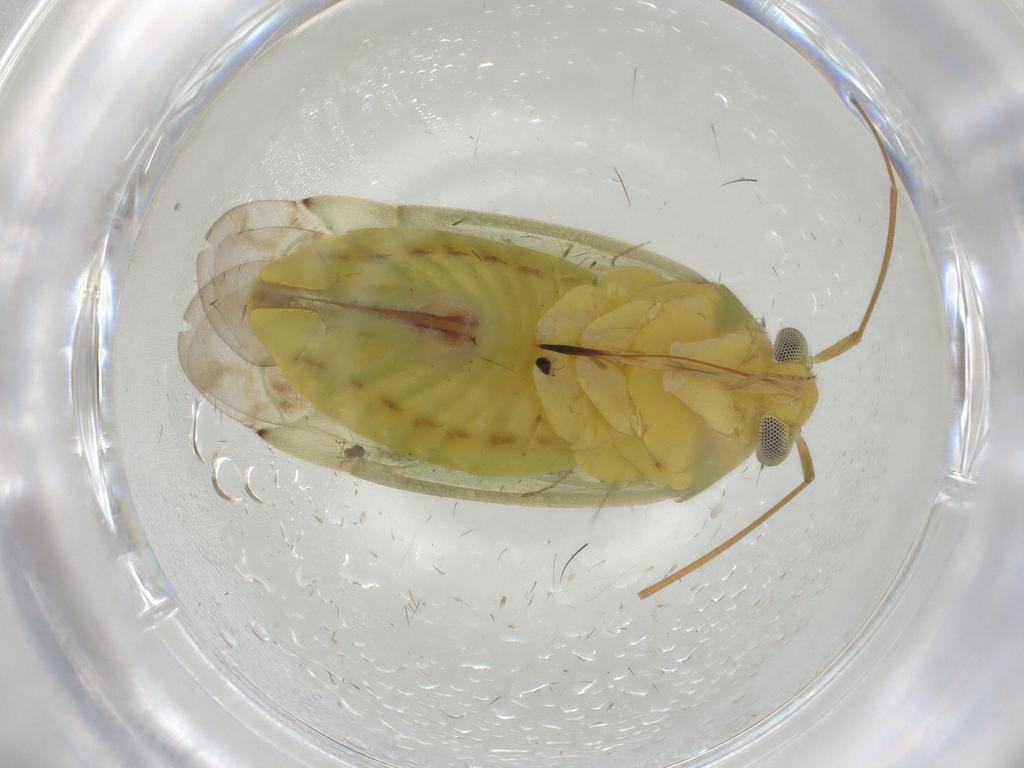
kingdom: Animalia
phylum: Arthropoda
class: Insecta
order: Hemiptera
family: Miridae
